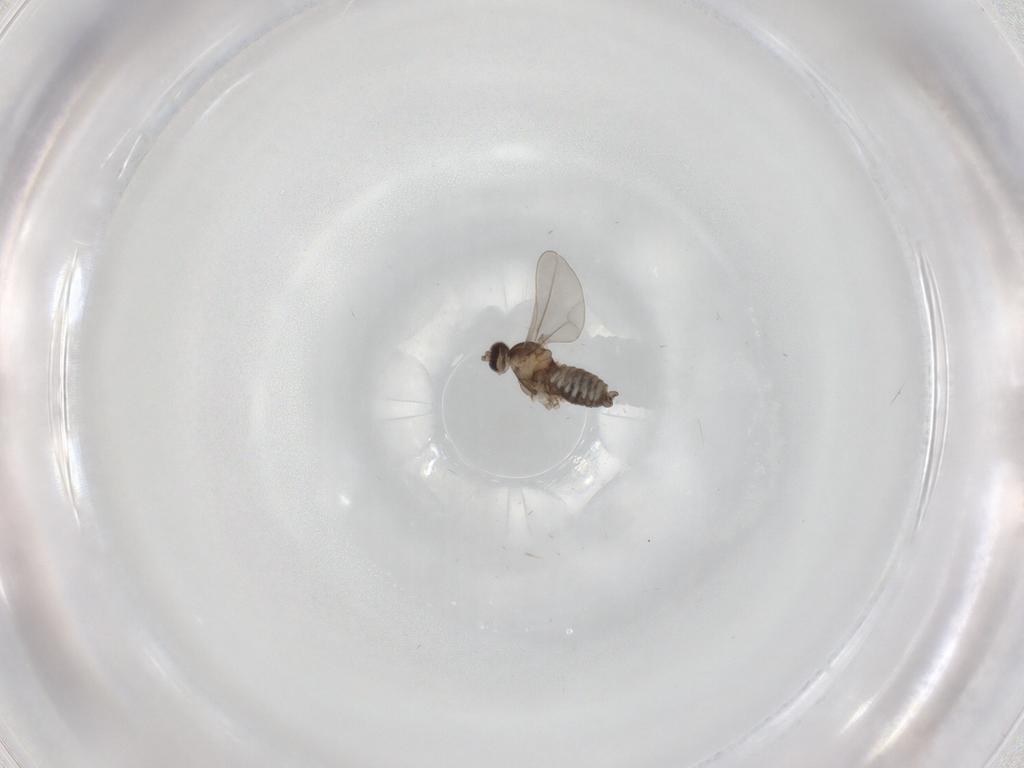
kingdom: Animalia
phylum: Arthropoda
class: Insecta
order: Diptera
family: Cecidomyiidae
